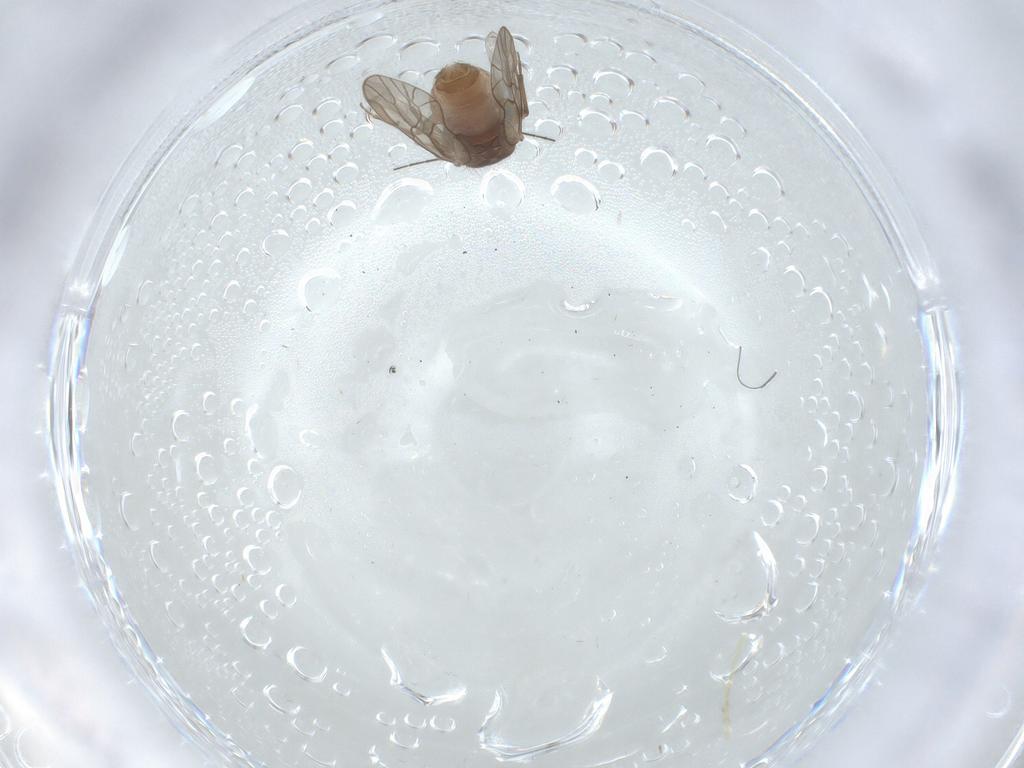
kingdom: Animalia
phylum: Arthropoda
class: Insecta
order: Psocodea
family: Ectopsocidae
